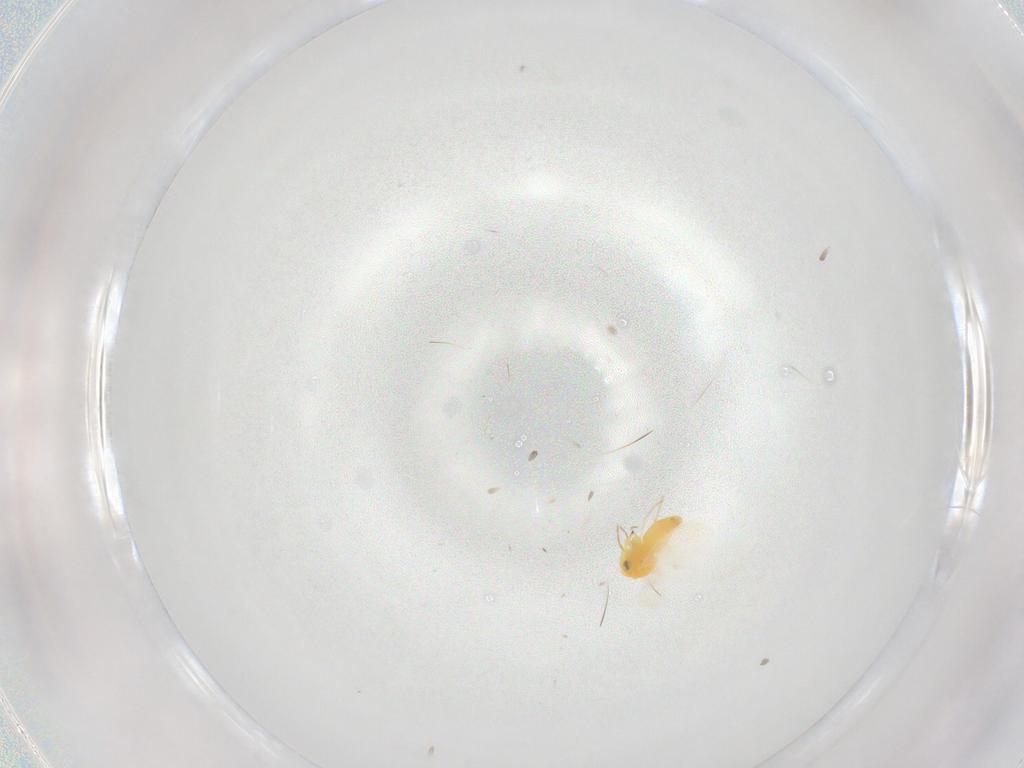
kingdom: Animalia
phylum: Arthropoda
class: Insecta
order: Hemiptera
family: Aleyrodidae
